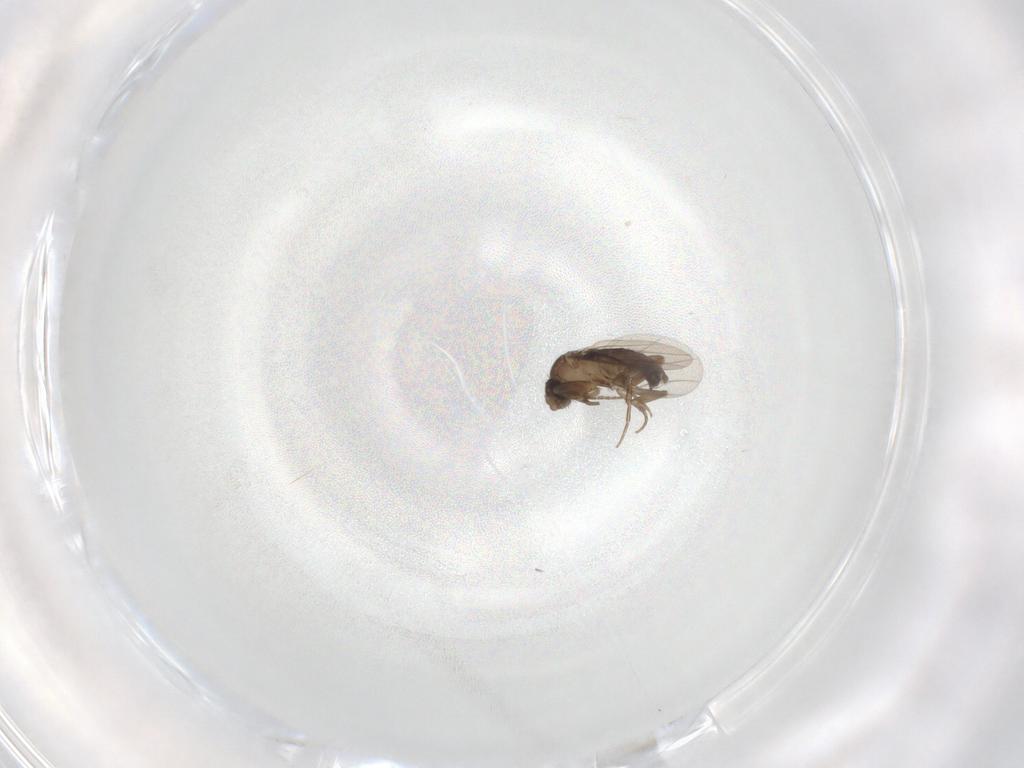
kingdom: Animalia
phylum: Arthropoda
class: Insecta
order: Diptera
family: Phoridae
